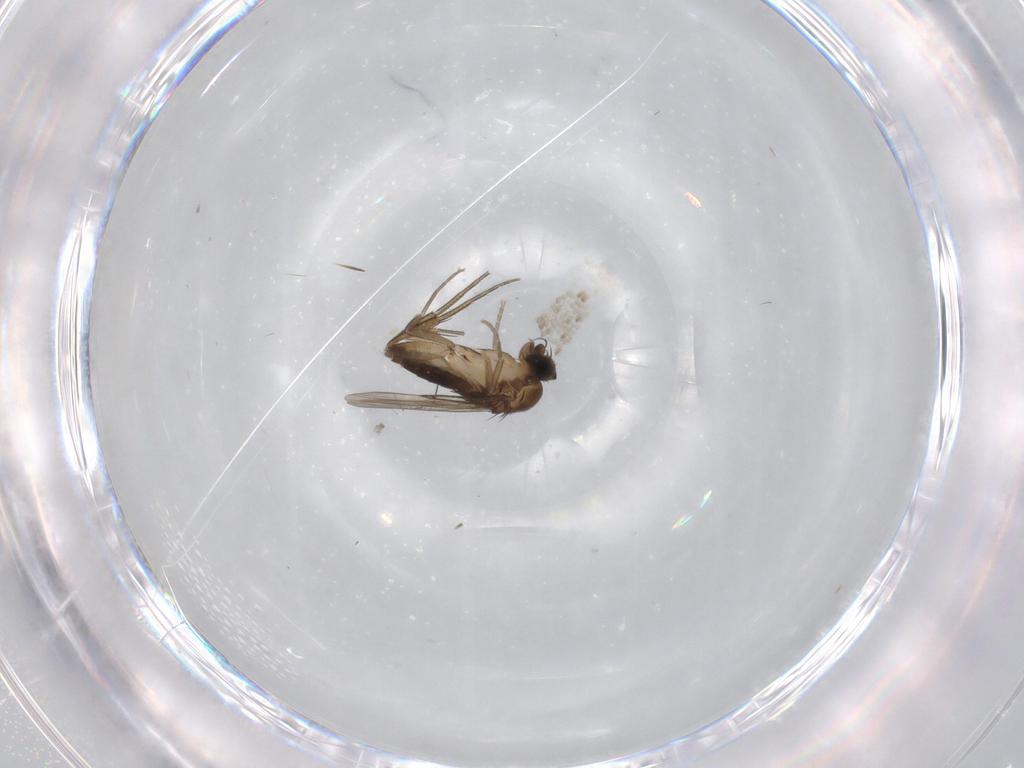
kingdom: Animalia
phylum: Arthropoda
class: Insecta
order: Diptera
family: Phoridae
